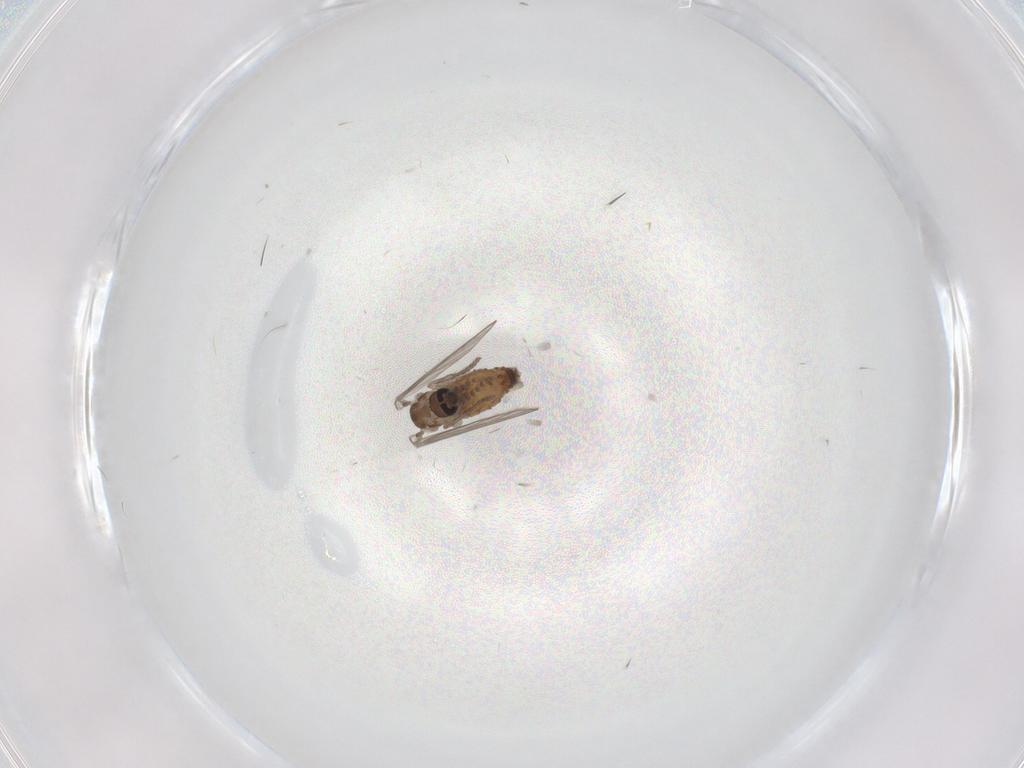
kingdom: Animalia
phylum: Arthropoda
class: Insecta
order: Diptera
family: Psychodidae
